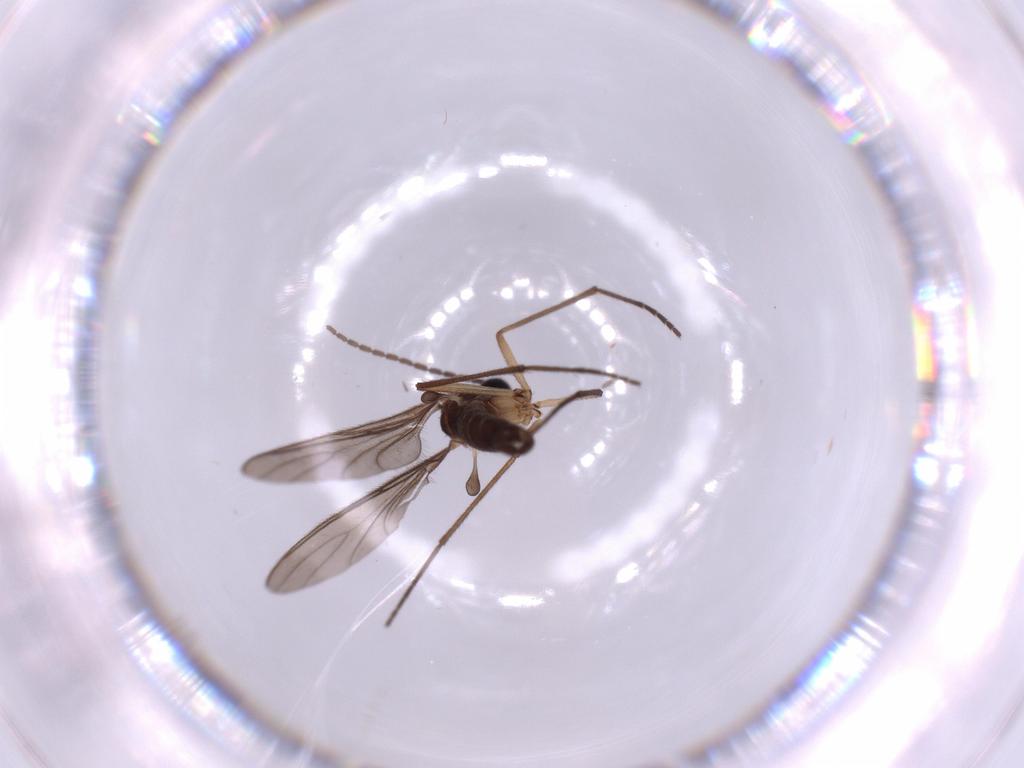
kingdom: Animalia
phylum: Arthropoda
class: Insecta
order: Diptera
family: Sciaridae
